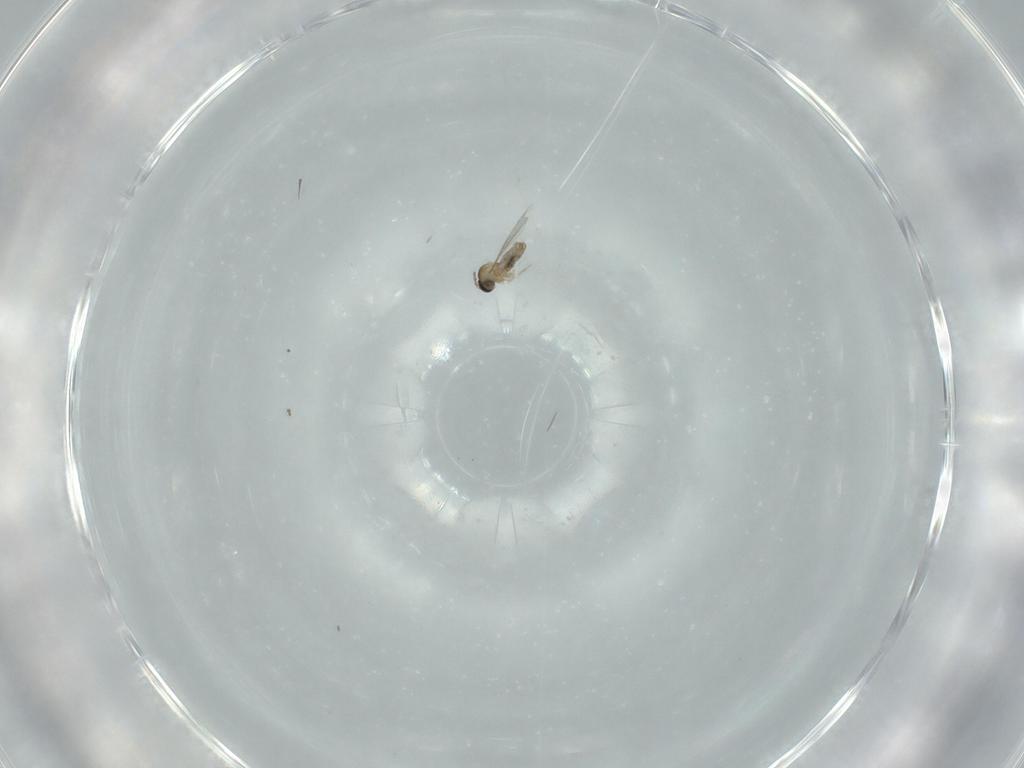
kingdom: Animalia
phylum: Arthropoda
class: Insecta
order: Diptera
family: Cecidomyiidae
